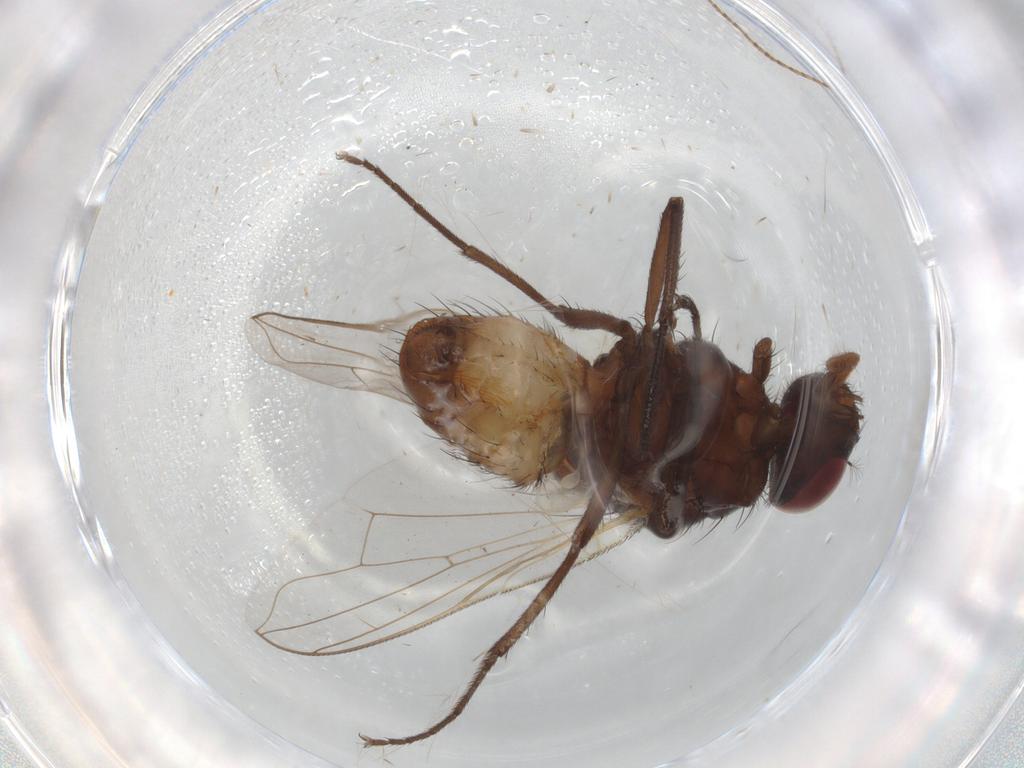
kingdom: Animalia
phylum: Arthropoda
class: Insecta
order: Diptera
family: Muscidae
